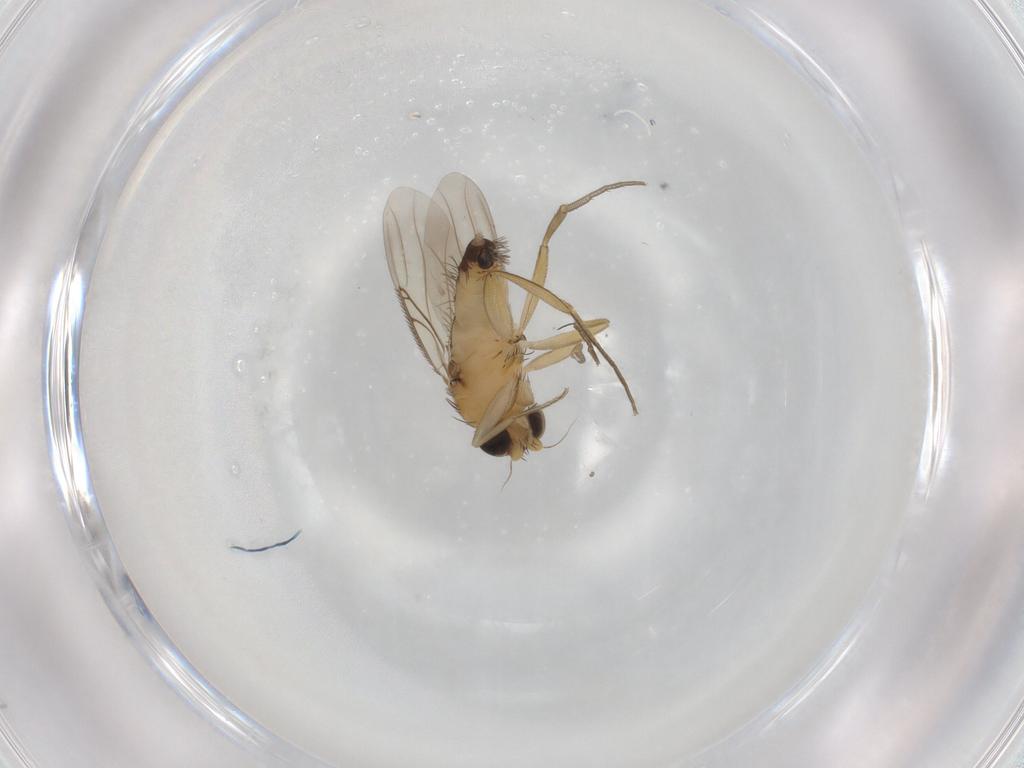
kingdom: Animalia
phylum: Arthropoda
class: Insecta
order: Diptera
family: Phoridae
